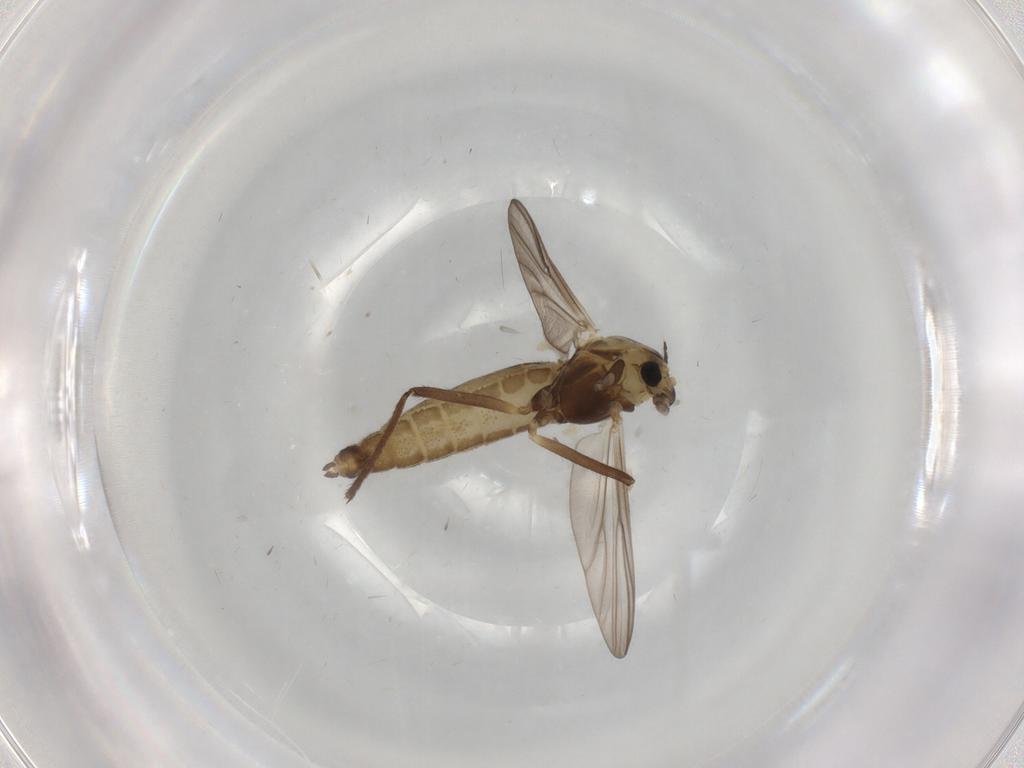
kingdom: Animalia
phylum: Arthropoda
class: Insecta
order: Diptera
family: Chironomidae
